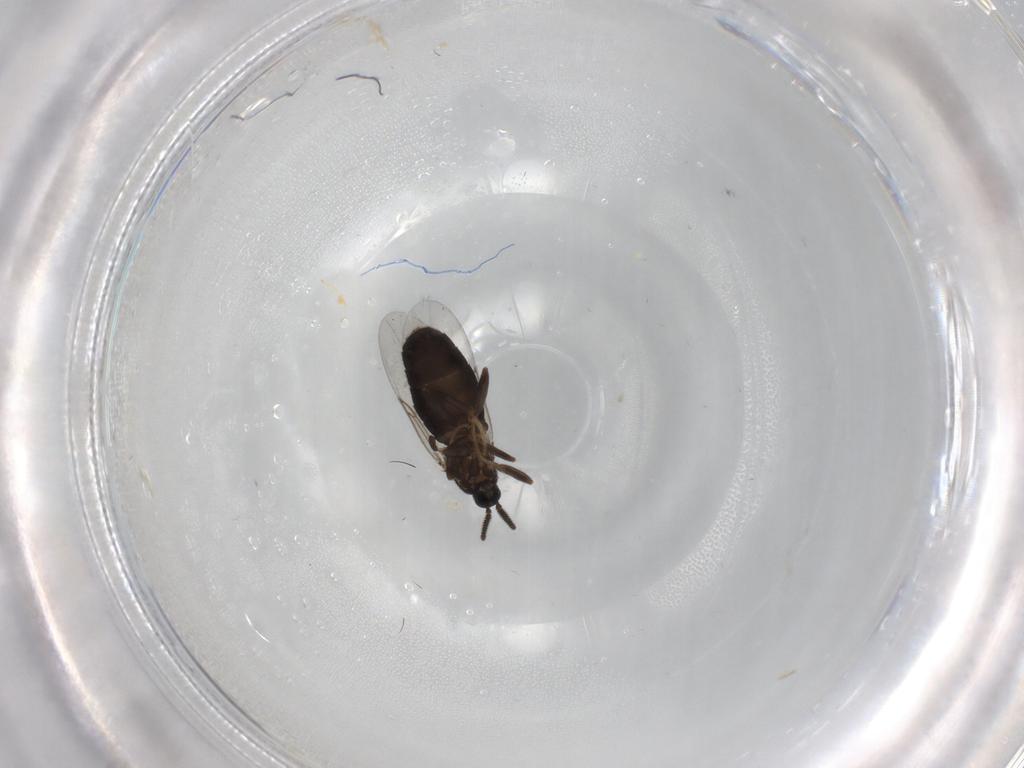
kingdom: Animalia
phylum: Arthropoda
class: Insecta
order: Diptera
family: Scatopsidae
